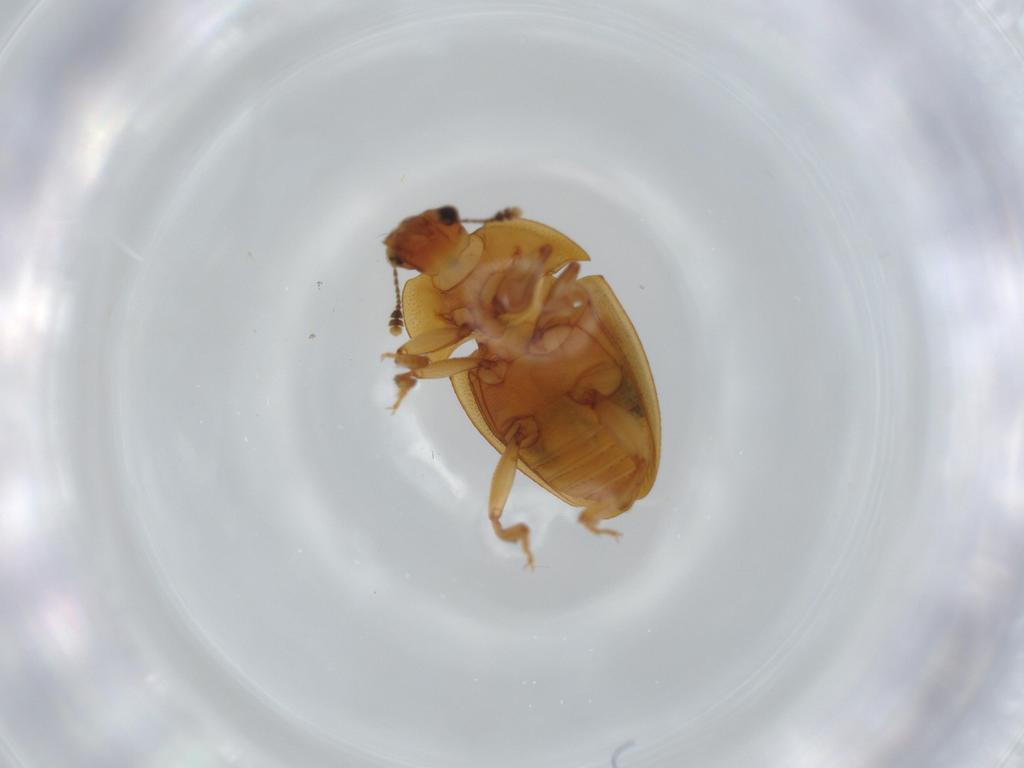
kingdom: Animalia
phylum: Arthropoda
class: Insecta
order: Coleoptera
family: Nitidulidae
